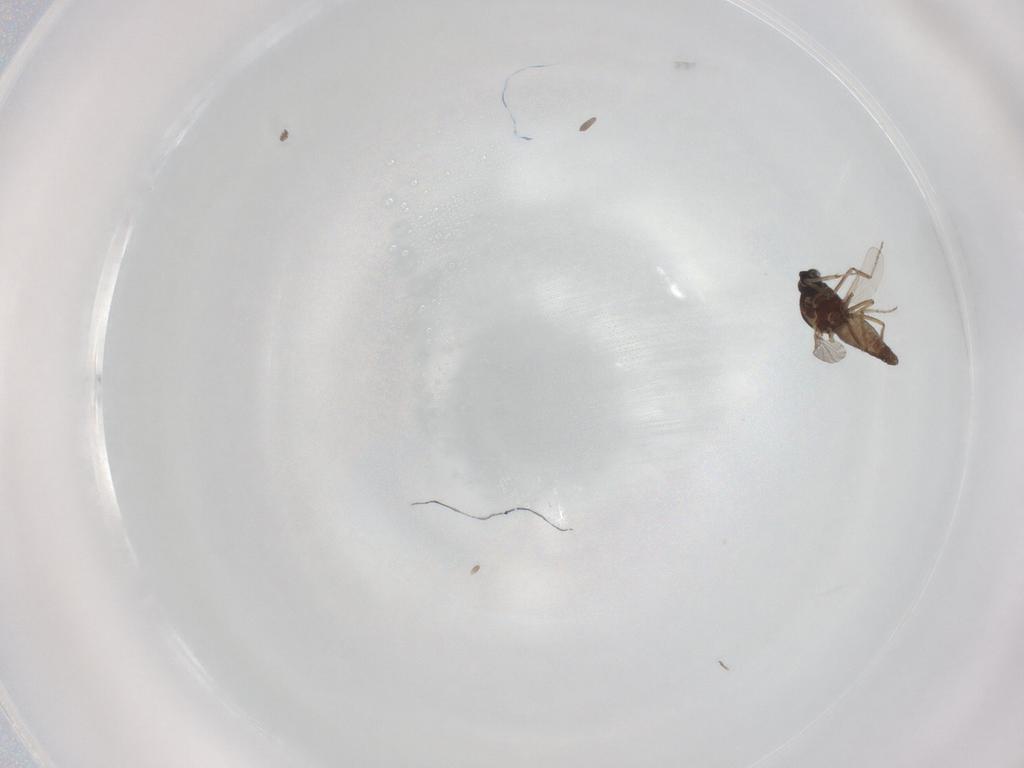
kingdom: Animalia
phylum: Arthropoda
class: Insecta
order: Diptera
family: Ceratopogonidae
